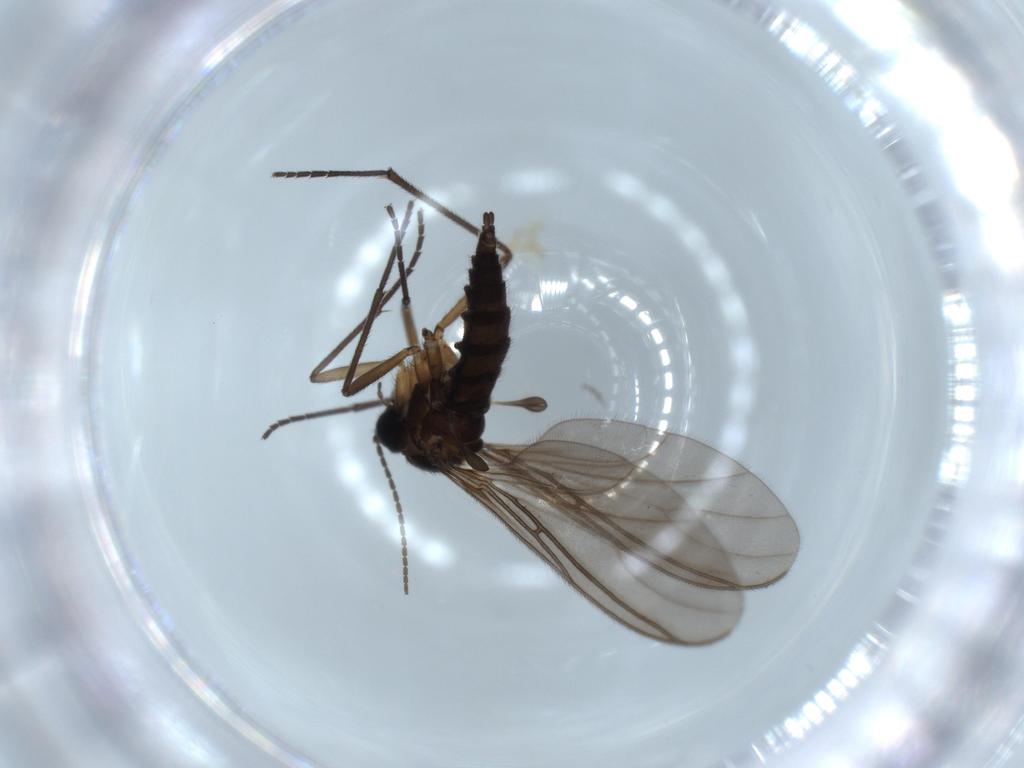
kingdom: Animalia
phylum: Arthropoda
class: Insecta
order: Diptera
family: Sciaridae
